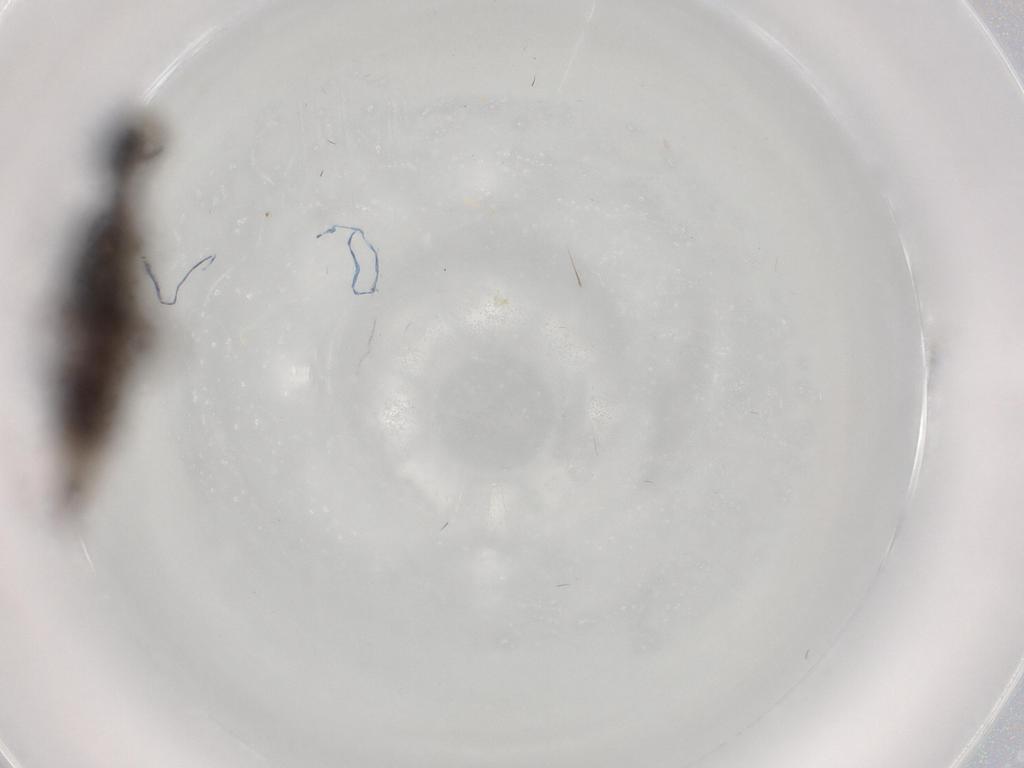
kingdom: Animalia
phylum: Arthropoda
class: Insecta
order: Diptera
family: Hybotidae
